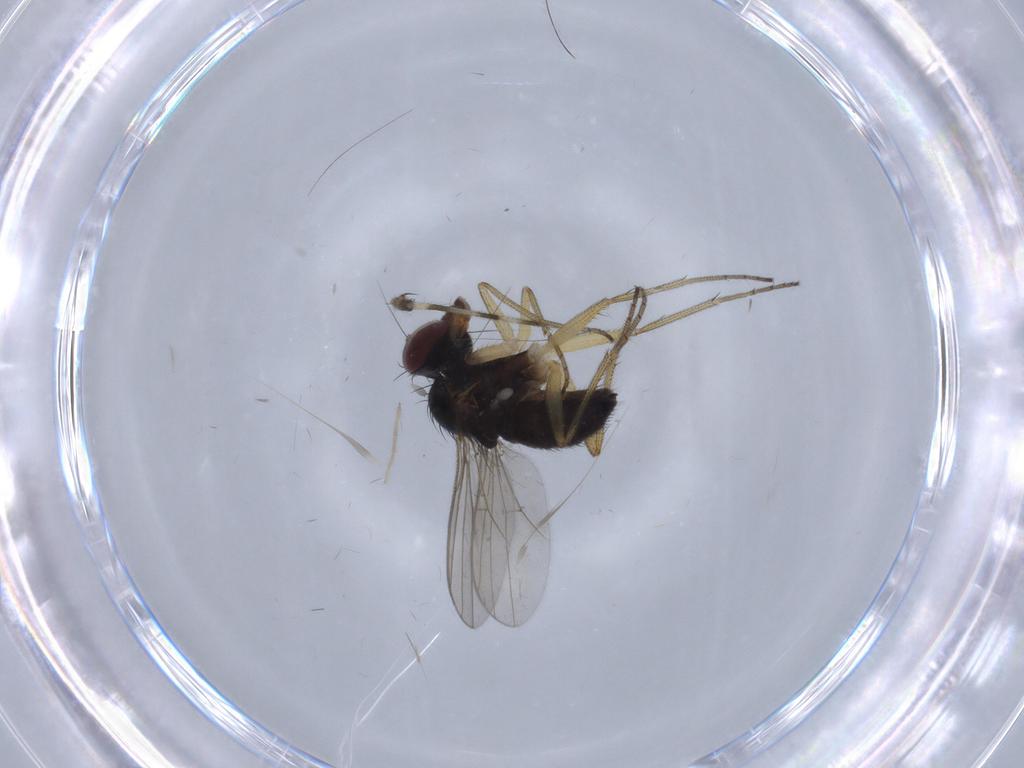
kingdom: Animalia
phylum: Arthropoda
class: Insecta
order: Diptera
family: Dolichopodidae
